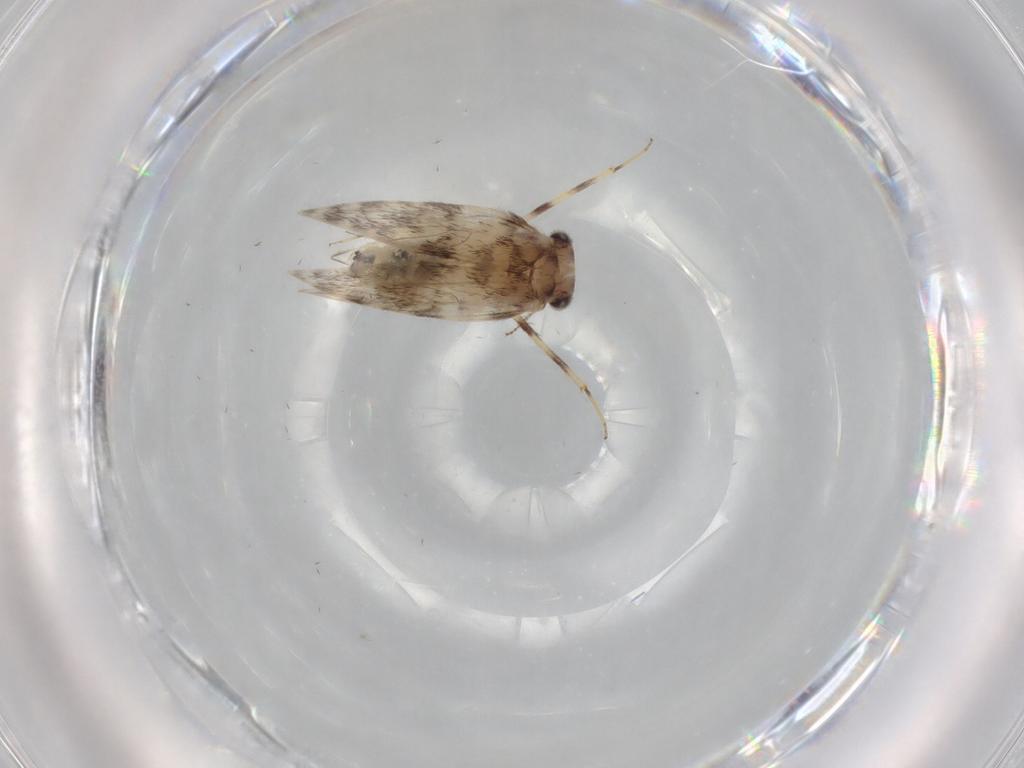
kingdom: Animalia
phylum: Arthropoda
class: Insecta
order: Psocodea
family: Lepidopsocidae
